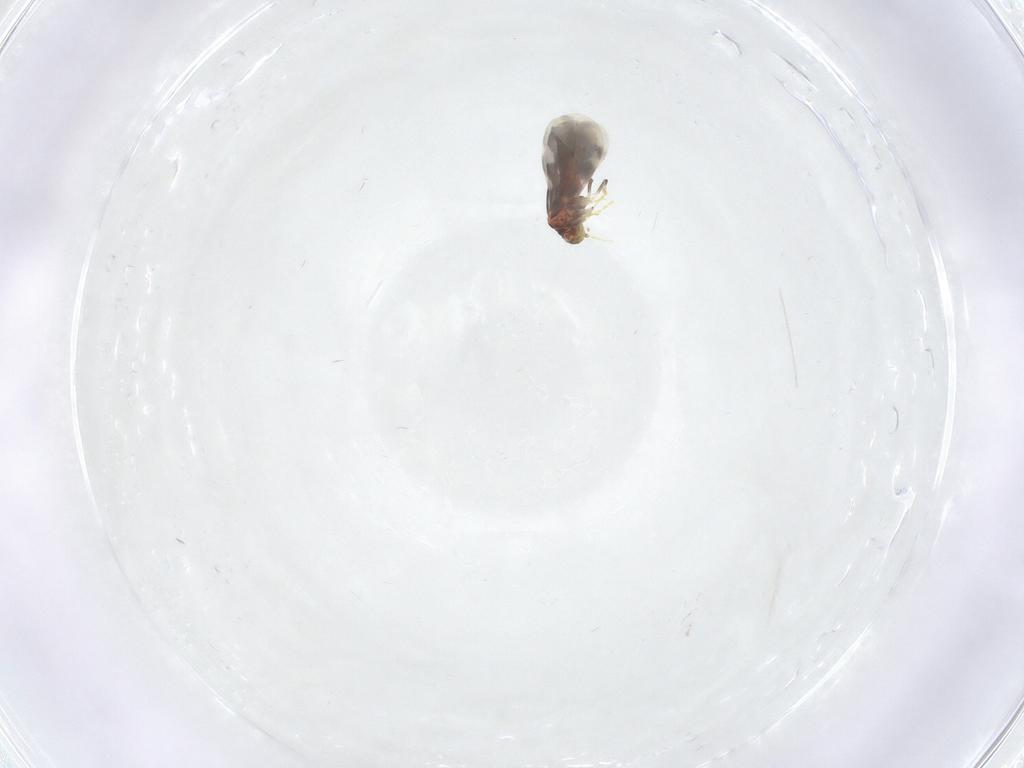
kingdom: Animalia
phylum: Arthropoda
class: Insecta
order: Hemiptera
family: Aleyrodidae
